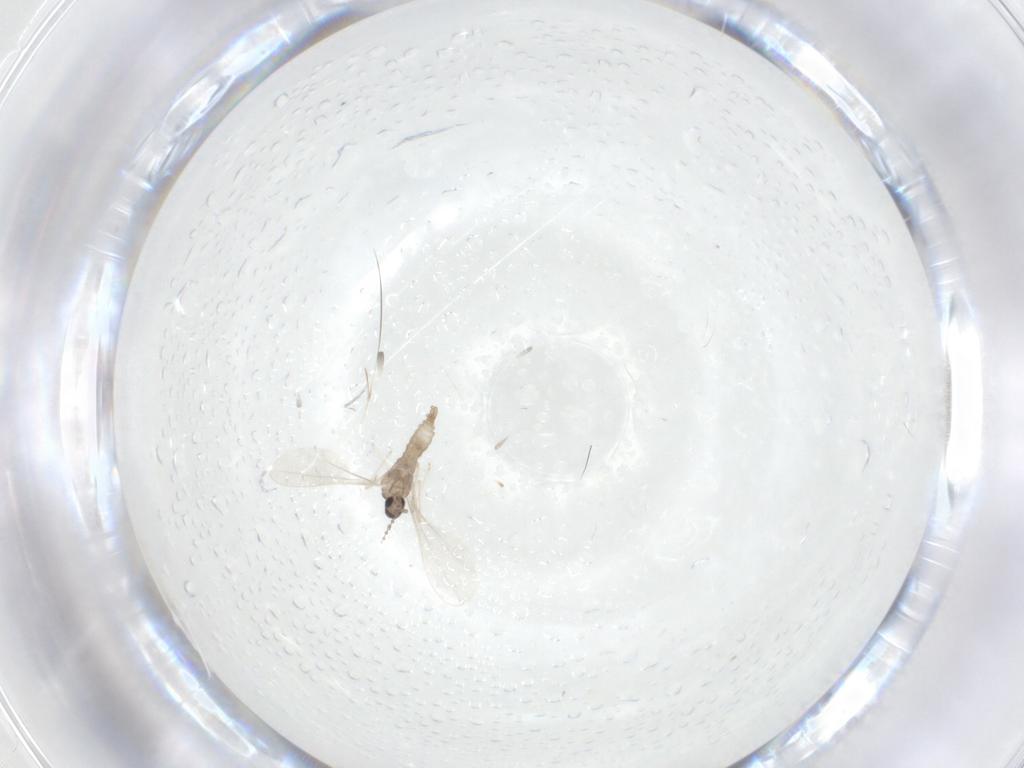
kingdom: Animalia
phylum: Arthropoda
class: Insecta
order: Diptera
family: Cecidomyiidae
